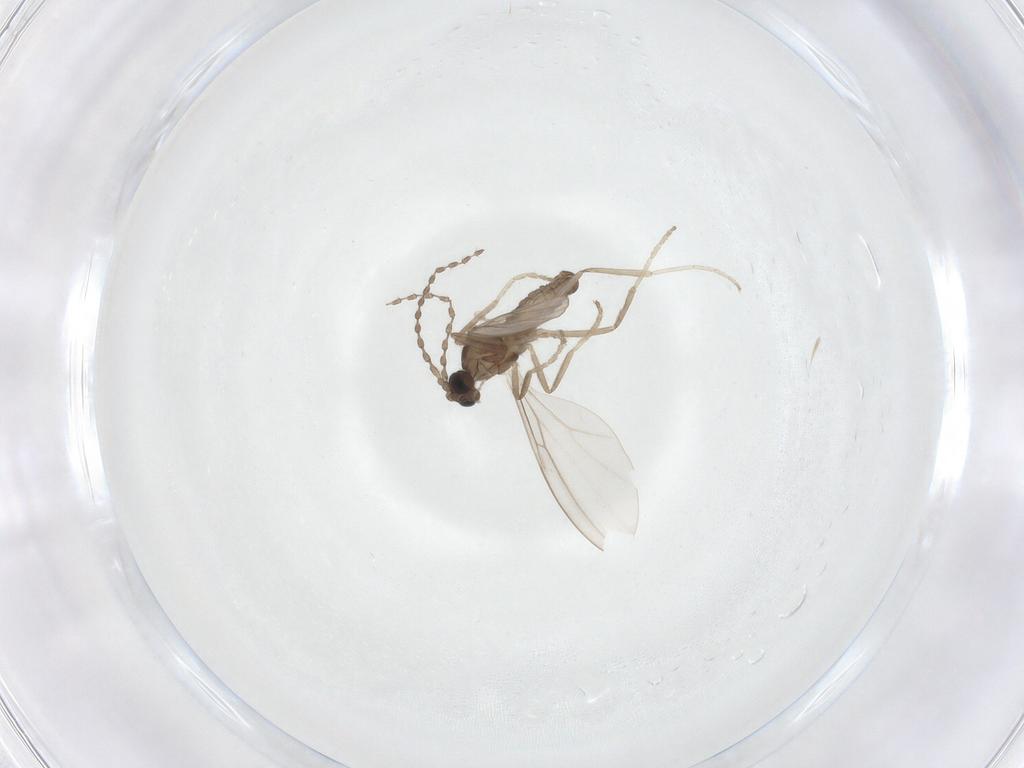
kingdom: Animalia
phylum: Arthropoda
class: Insecta
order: Diptera
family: Cecidomyiidae
